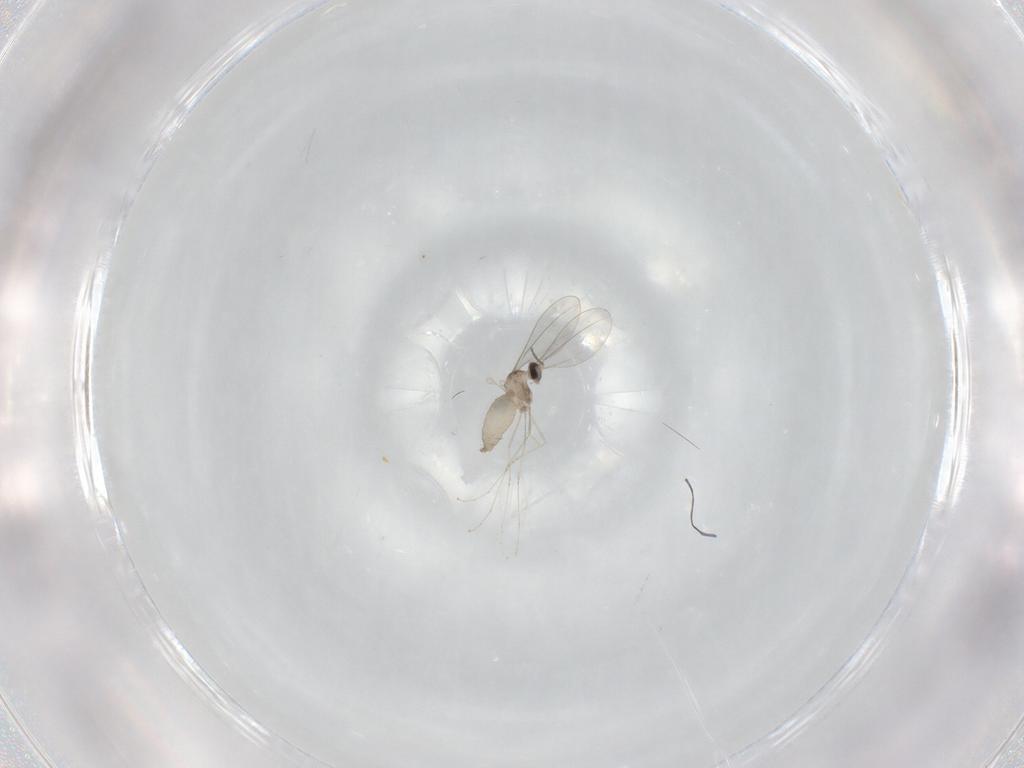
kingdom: Animalia
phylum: Arthropoda
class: Insecta
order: Diptera
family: Cecidomyiidae
